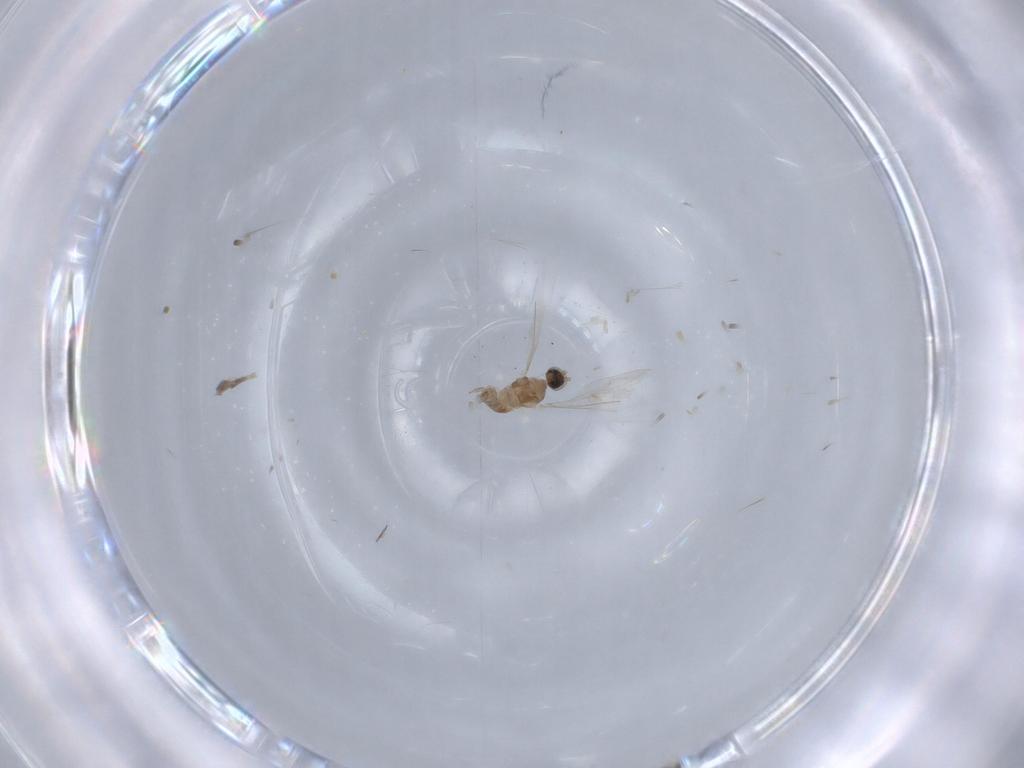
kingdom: Animalia
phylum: Arthropoda
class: Insecta
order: Diptera
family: Cecidomyiidae
